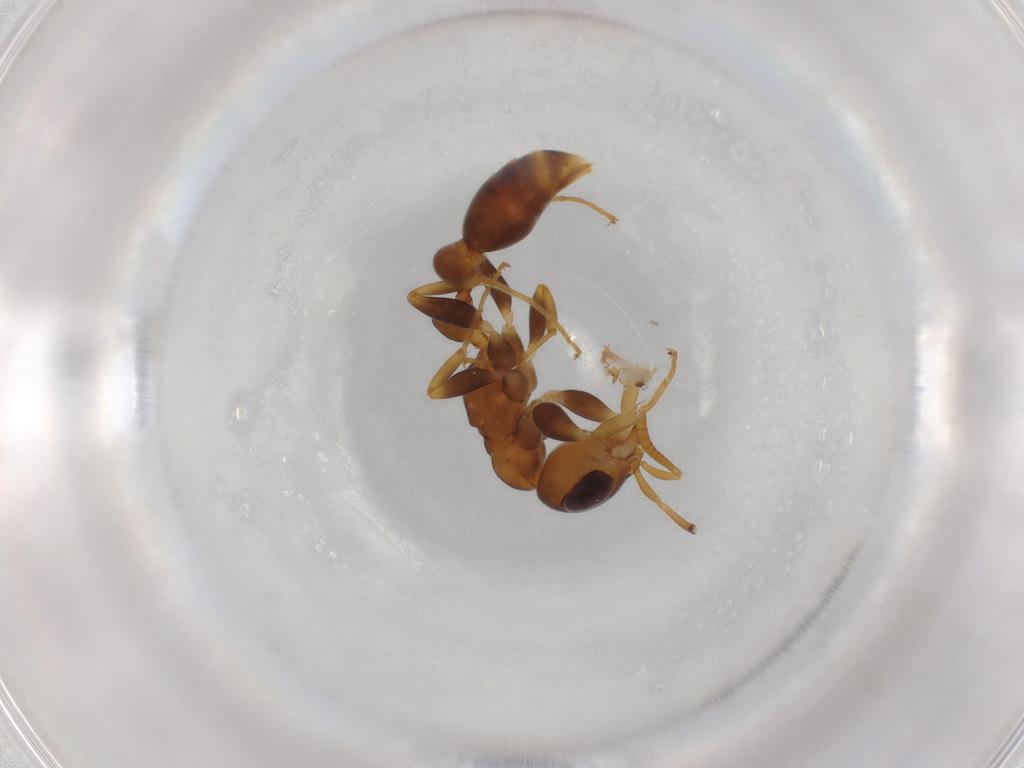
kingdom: Animalia
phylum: Arthropoda
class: Insecta
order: Hymenoptera
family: Formicidae
